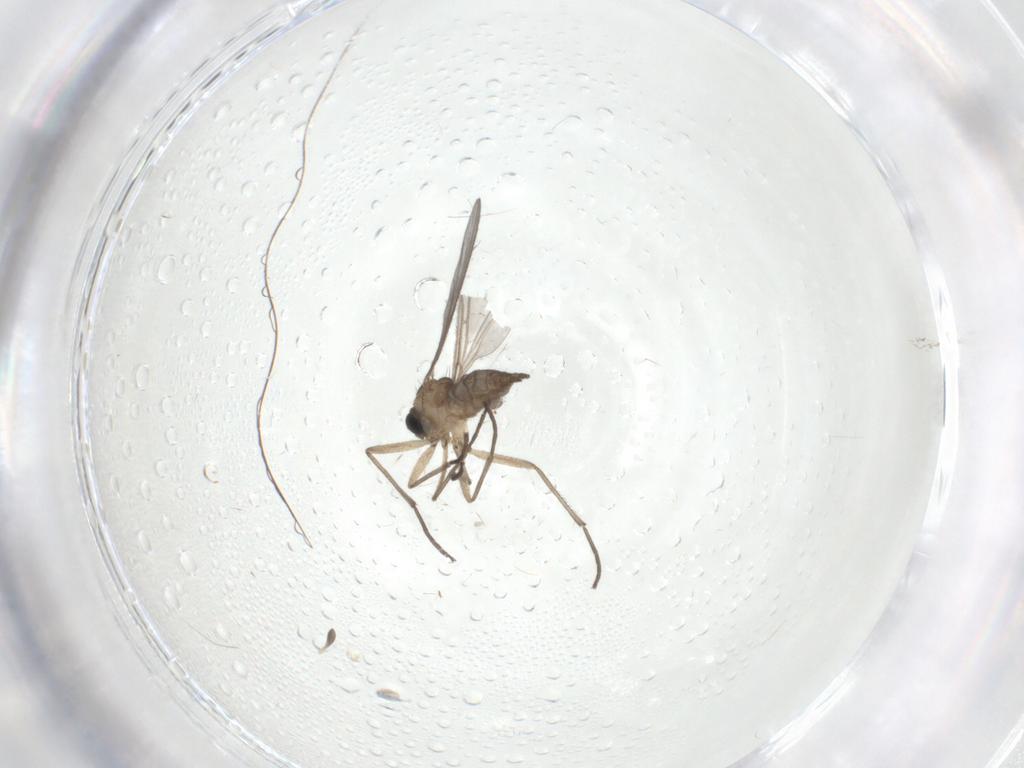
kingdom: Animalia
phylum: Arthropoda
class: Insecta
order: Diptera
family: Sciaridae
